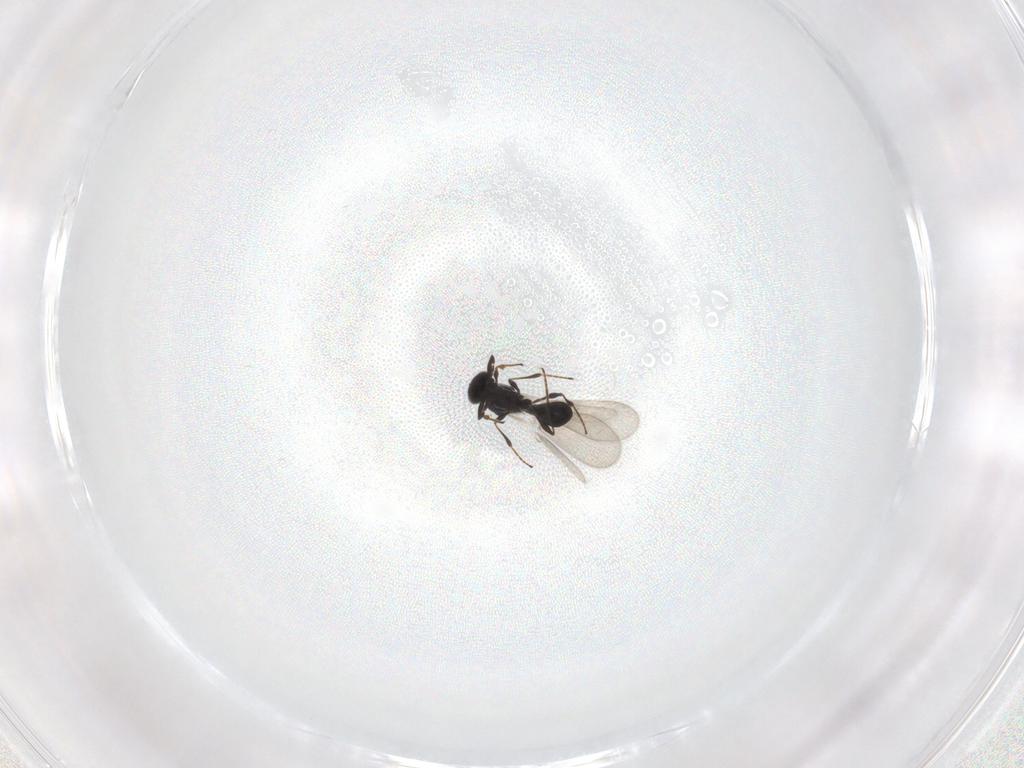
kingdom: Animalia
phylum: Arthropoda
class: Insecta
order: Hymenoptera
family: Platygastridae
